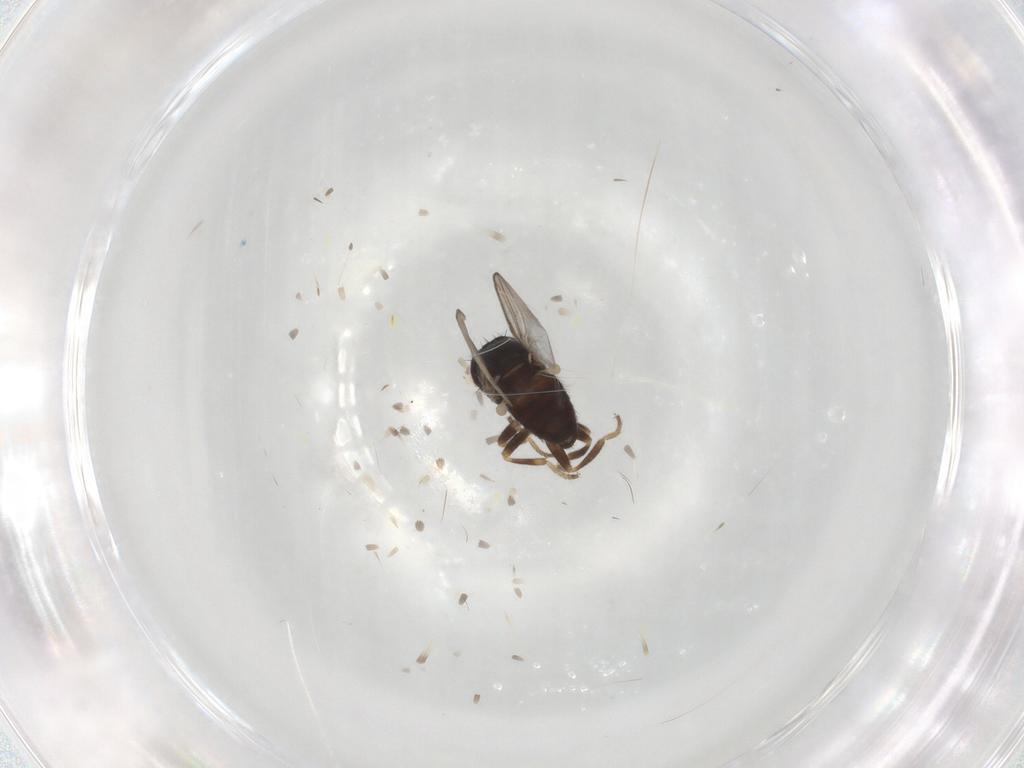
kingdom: Animalia
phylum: Arthropoda
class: Insecta
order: Diptera
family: Chloropidae
